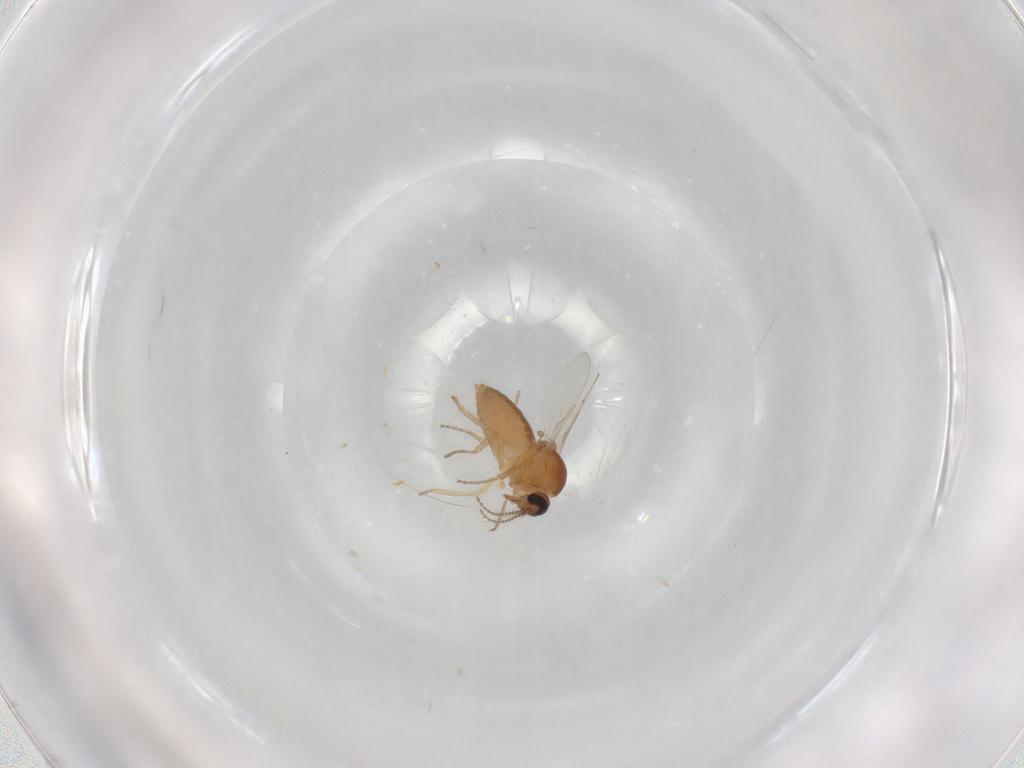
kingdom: Animalia
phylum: Arthropoda
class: Insecta
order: Diptera
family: Ceratopogonidae
